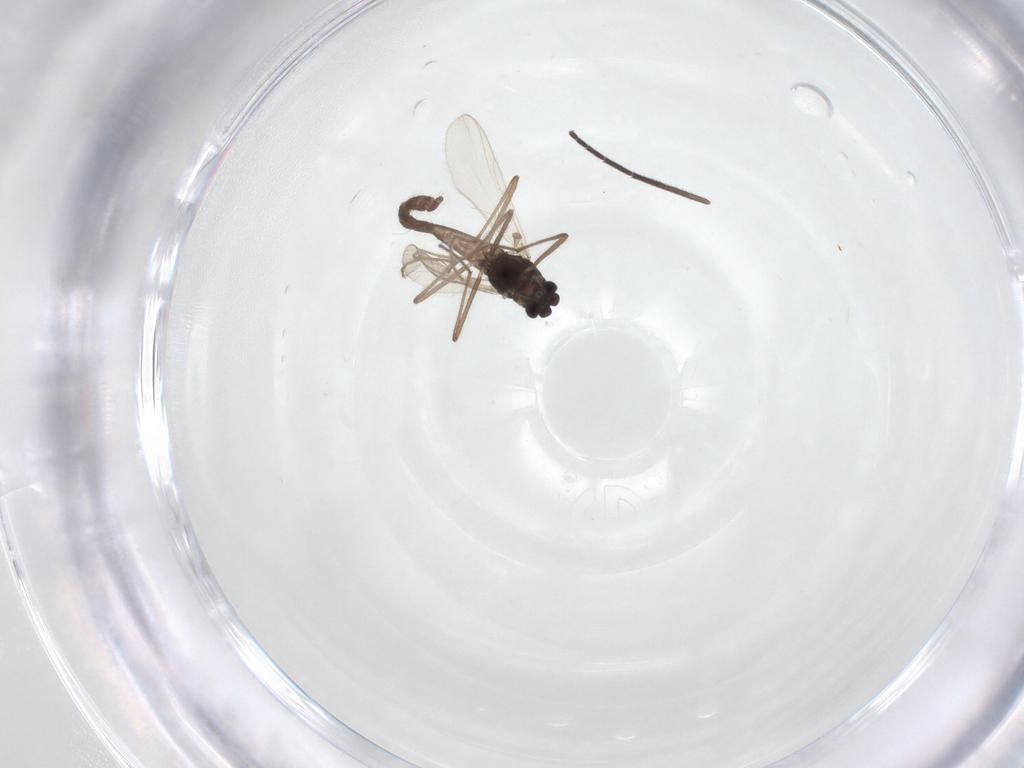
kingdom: Animalia
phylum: Arthropoda
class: Insecta
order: Diptera
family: Chironomidae
